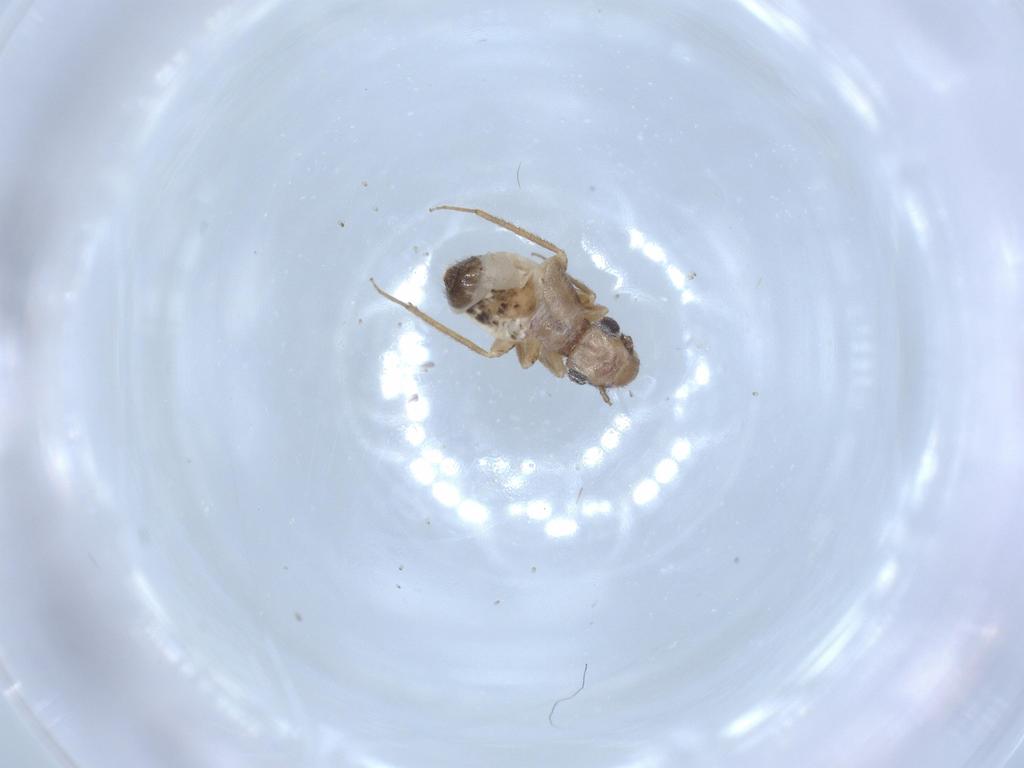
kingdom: Animalia
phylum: Arthropoda
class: Insecta
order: Psocodea
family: Lepidopsocidae
